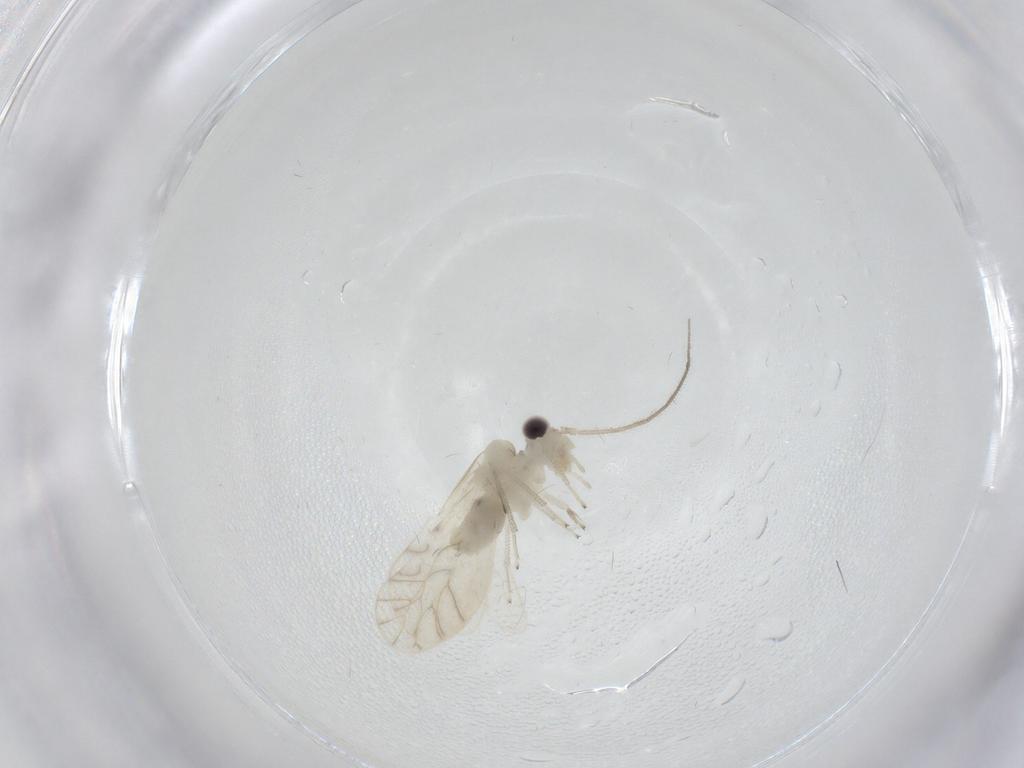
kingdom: Animalia
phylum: Arthropoda
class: Insecta
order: Psocodea
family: Caeciliusidae
